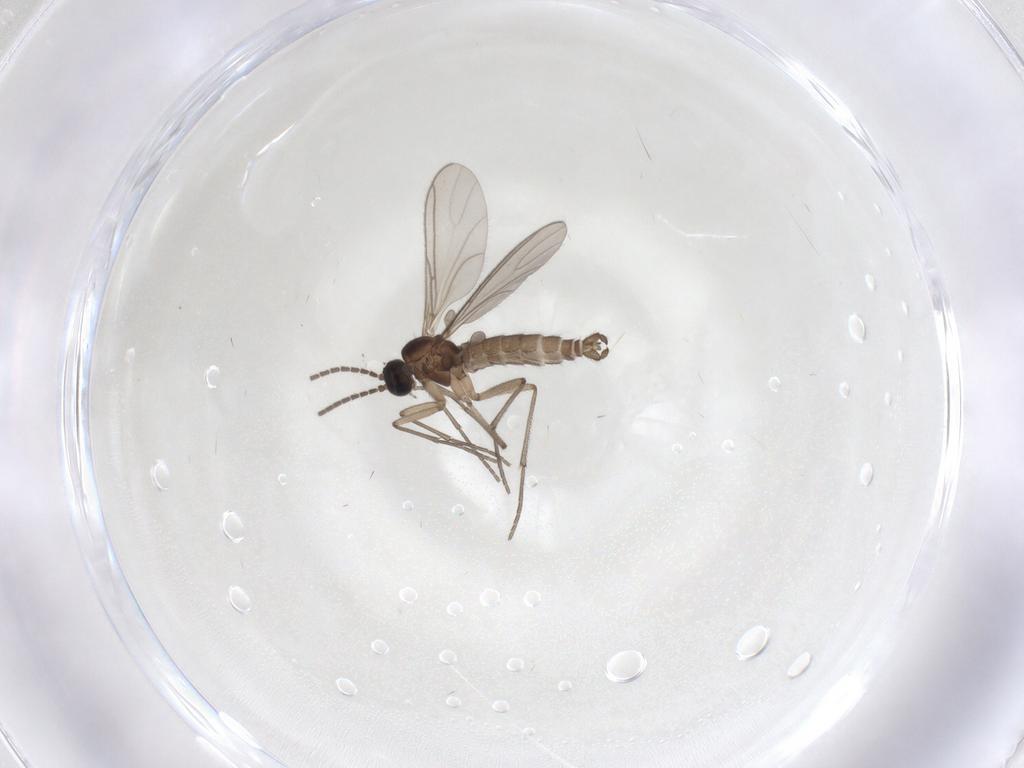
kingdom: Animalia
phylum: Arthropoda
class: Insecta
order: Diptera
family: Sciaridae
